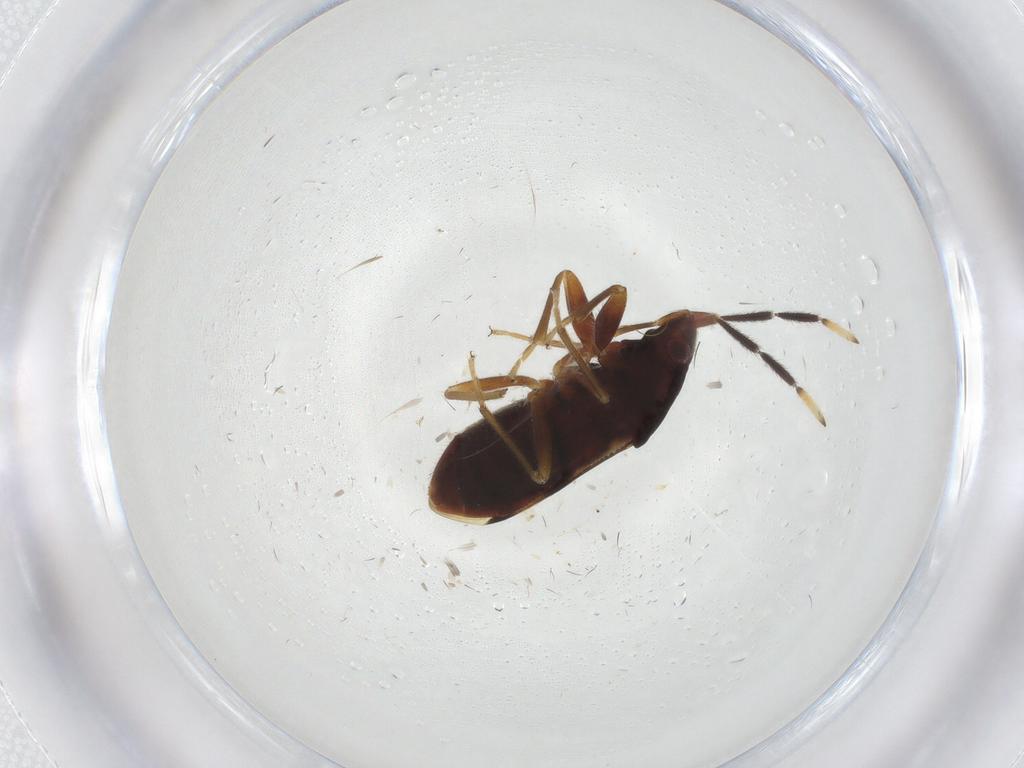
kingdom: Animalia
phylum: Arthropoda
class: Insecta
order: Hemiptera
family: Rhyparochromidae
